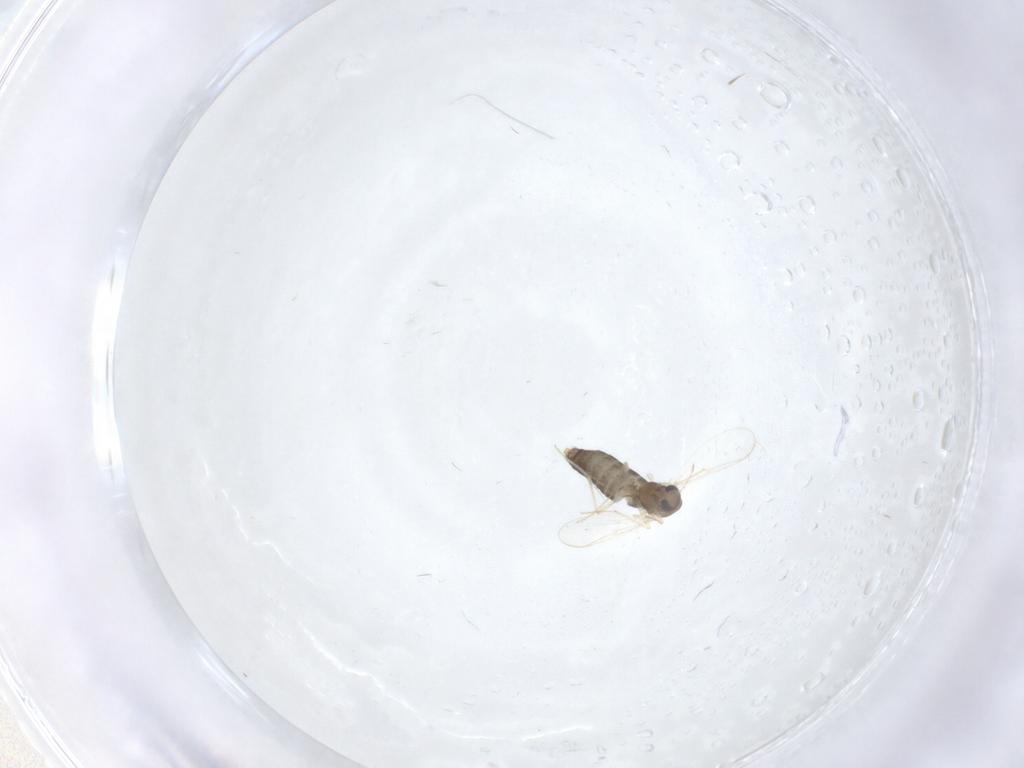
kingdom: Animalia
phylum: Arthropoda
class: Insecta
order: Diptera
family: Chironomidae
